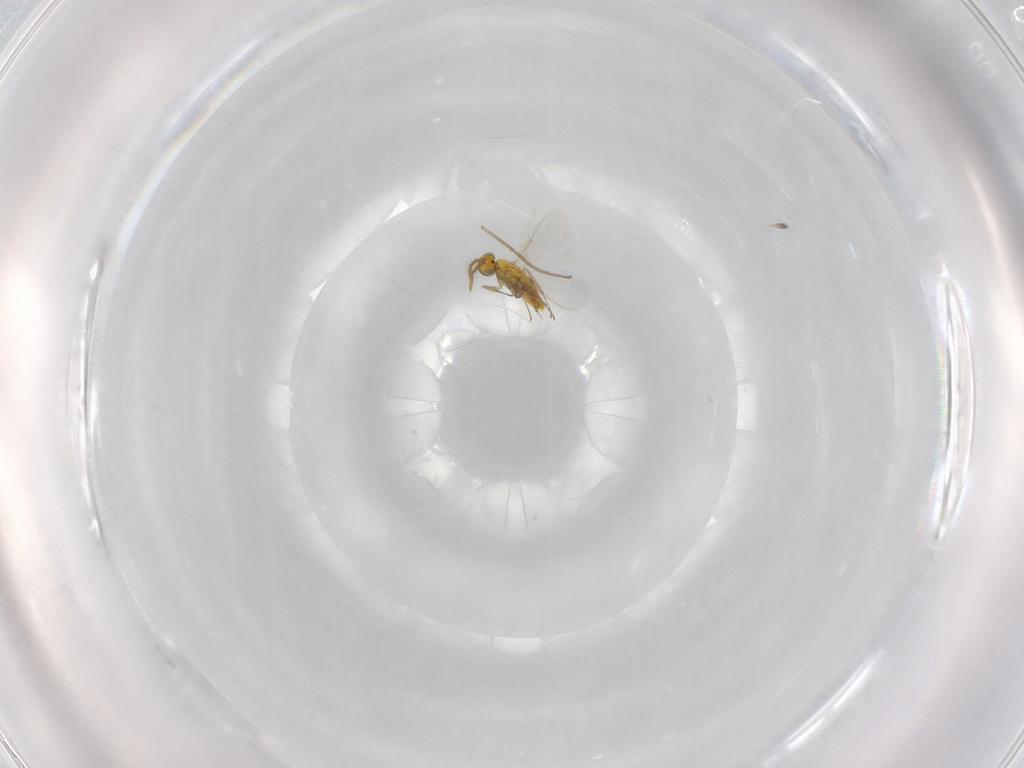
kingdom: Animalia
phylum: Arthropoda
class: Insecta
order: Hymenoptera
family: Aphelinidae
